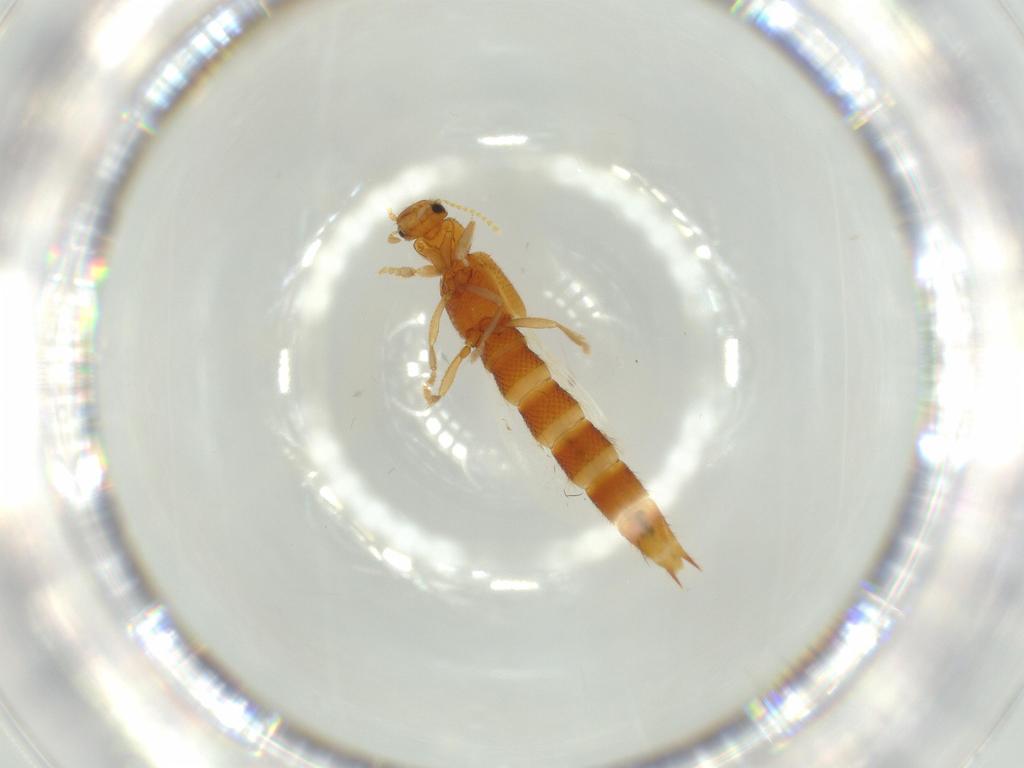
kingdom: Animalia
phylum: Arthropoda
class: Insecta
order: Coleoptera
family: Staphylinidae
